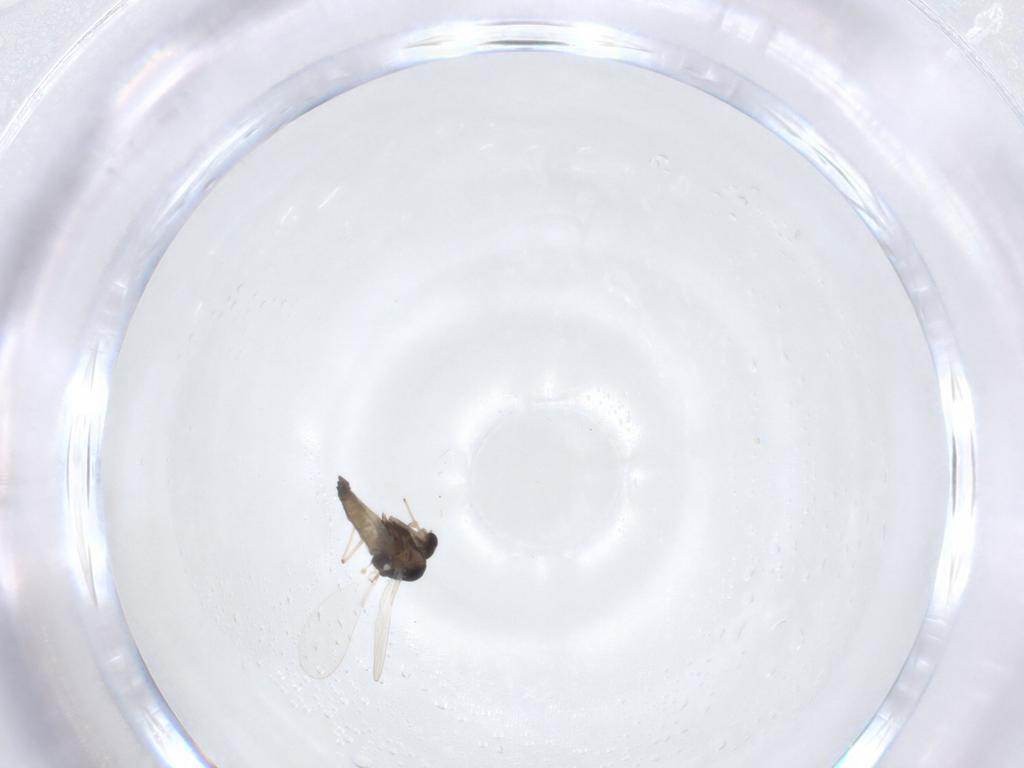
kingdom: Animalia
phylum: Arthropoda
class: Insecta
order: Diptera
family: Chironomidae
